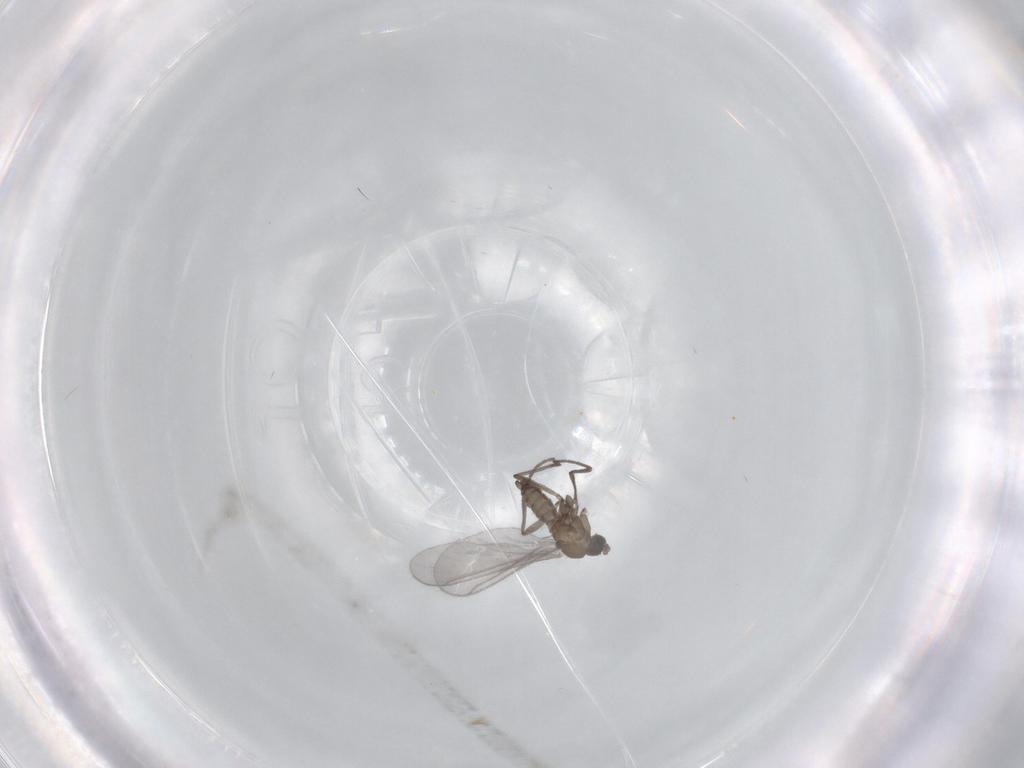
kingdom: Animalia
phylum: Arthropoda
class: Insecta
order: Diptera
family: Sciaridae
